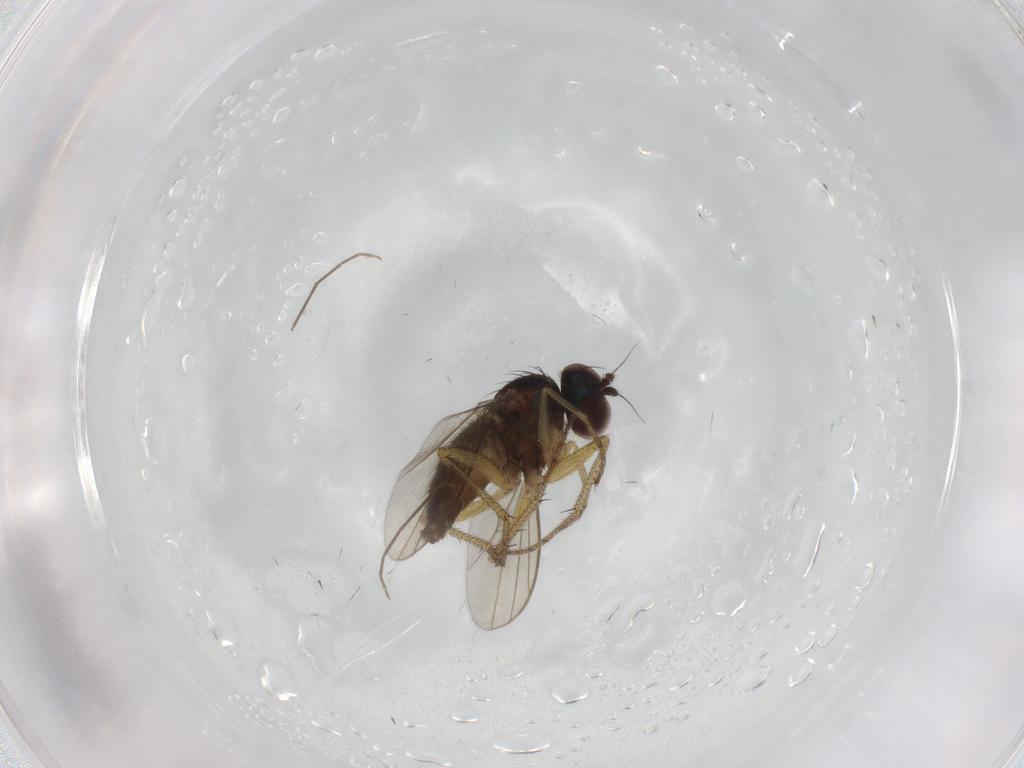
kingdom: Animalia
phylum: Arthropoda
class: Insecta
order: Diptera
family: Dolichopodidae
